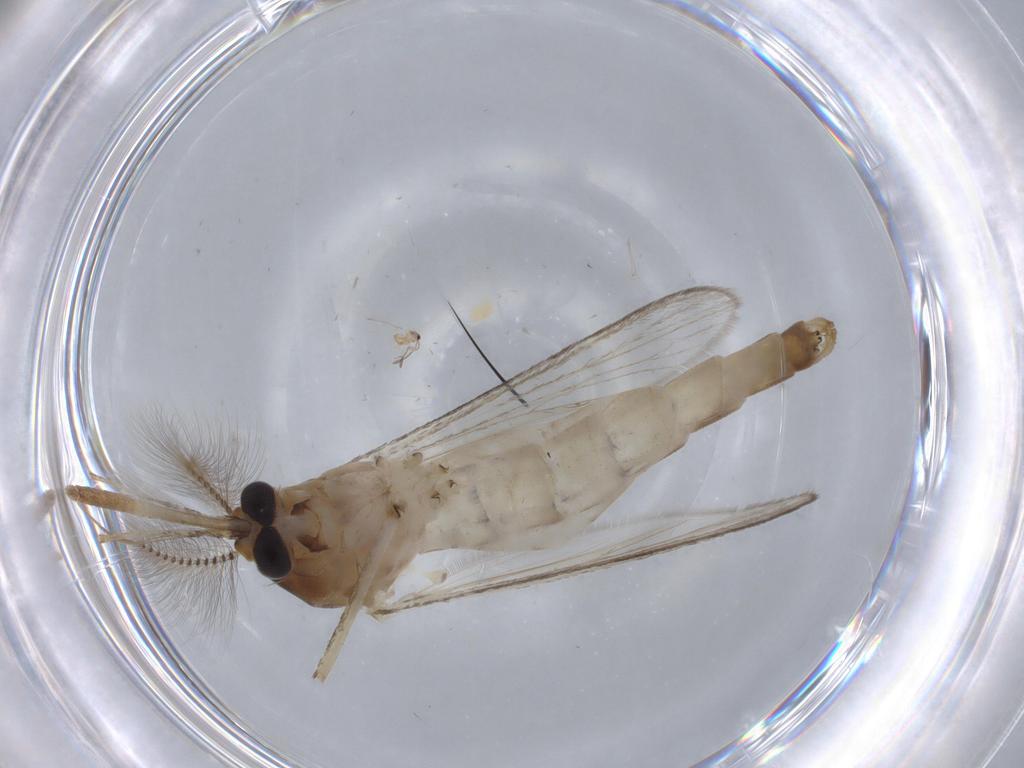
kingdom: Animalia
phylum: Arthropoda
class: Insecta
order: Diptera
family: Culicidae
